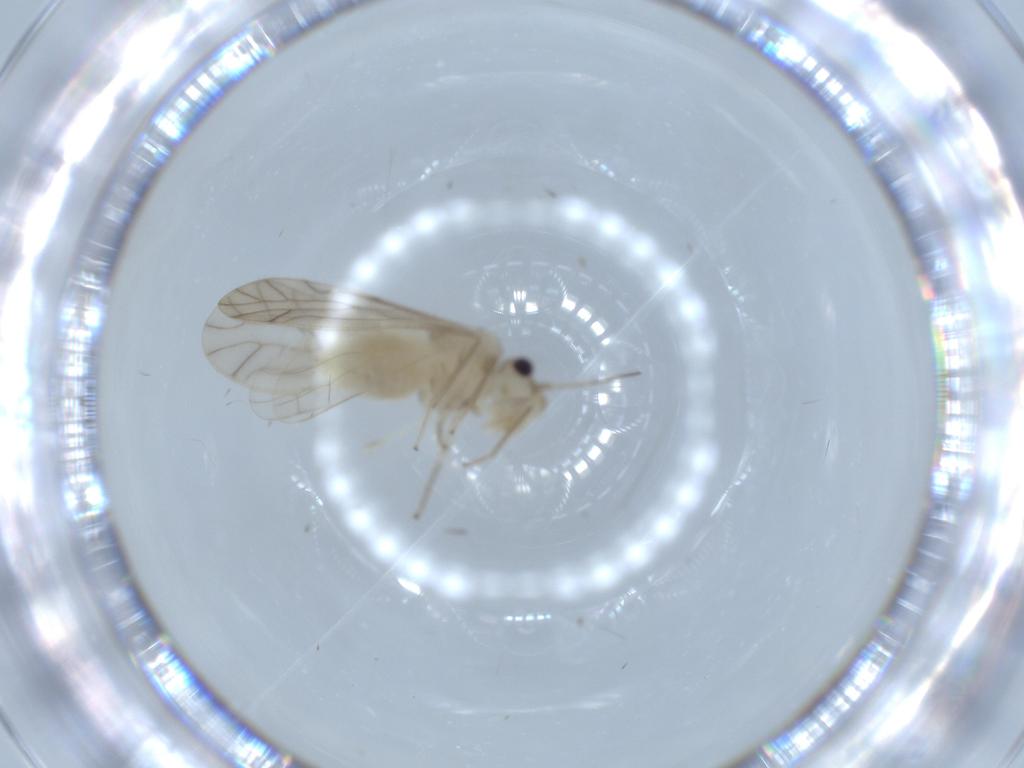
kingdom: Animalia
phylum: Arthropoda
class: Insecta
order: Psocodea
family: Caeciliusidae
